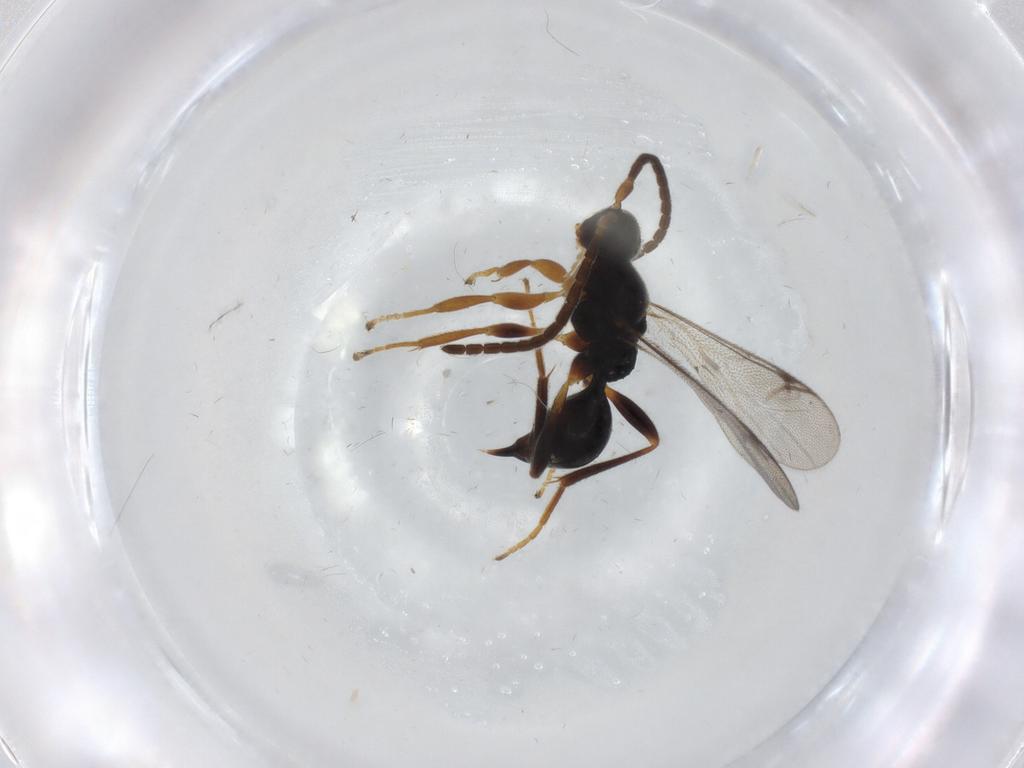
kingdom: Animalia
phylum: Arthropoda
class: Insecta
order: Hymenoptera
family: Proctotrupidae
